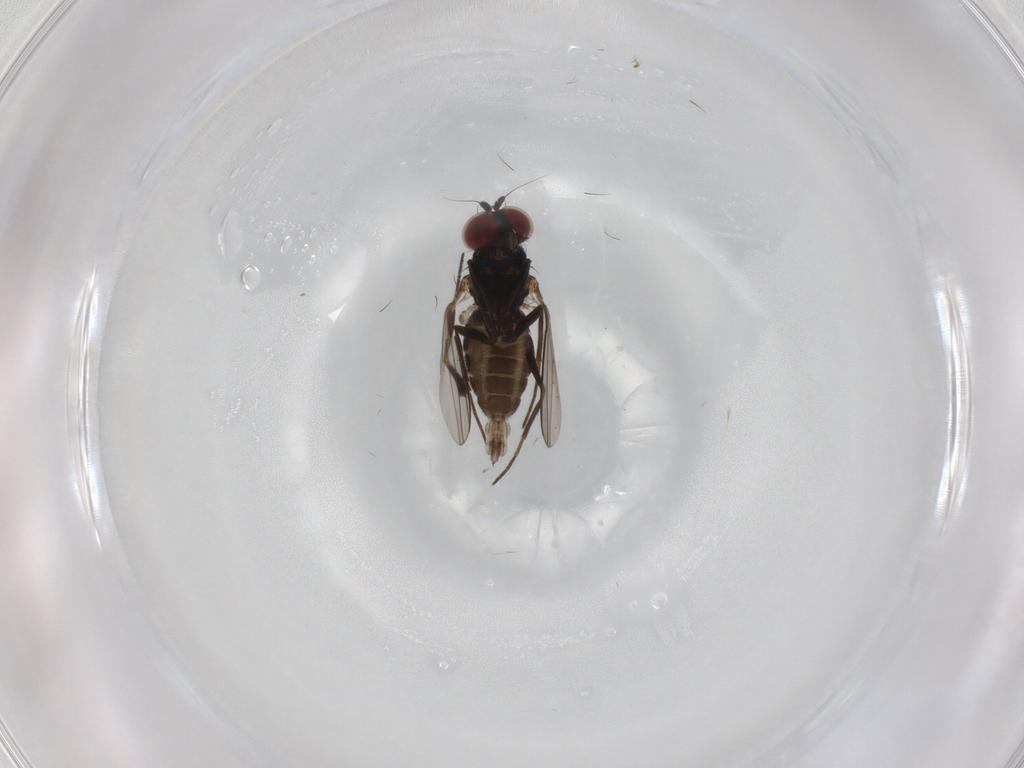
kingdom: Animalia
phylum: Arthropoda
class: Insecta
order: Diptera
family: Dolichopodidae
